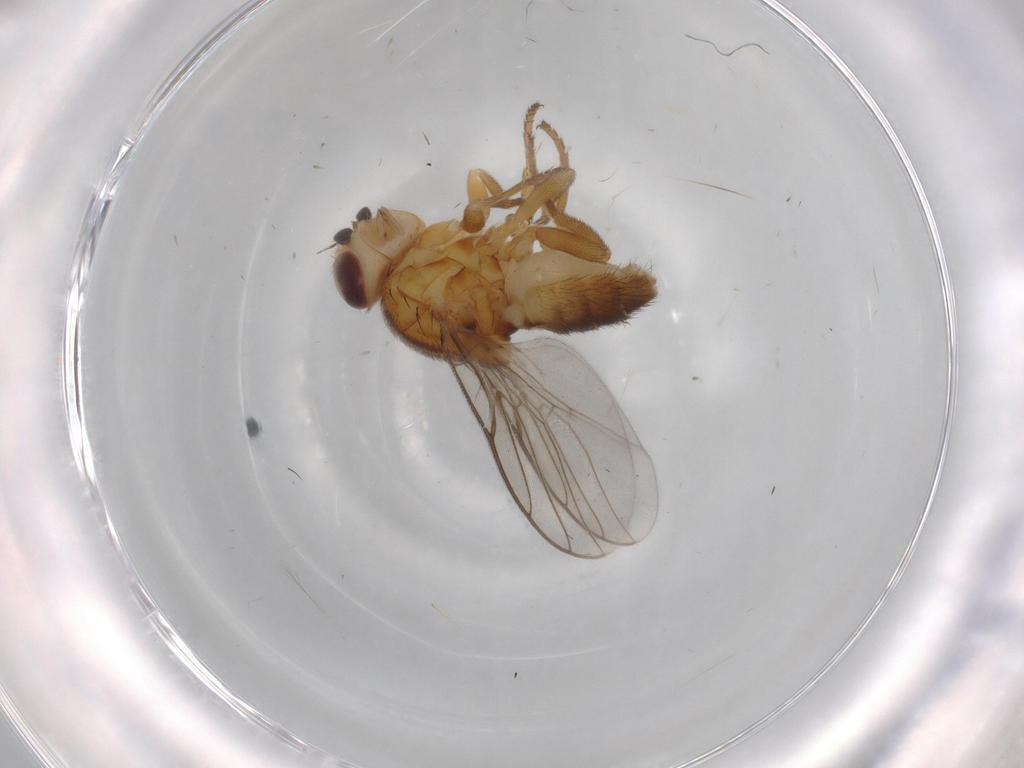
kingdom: Animalia
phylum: Arthropoda
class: Insecta
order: Diptera
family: Chloropidae
